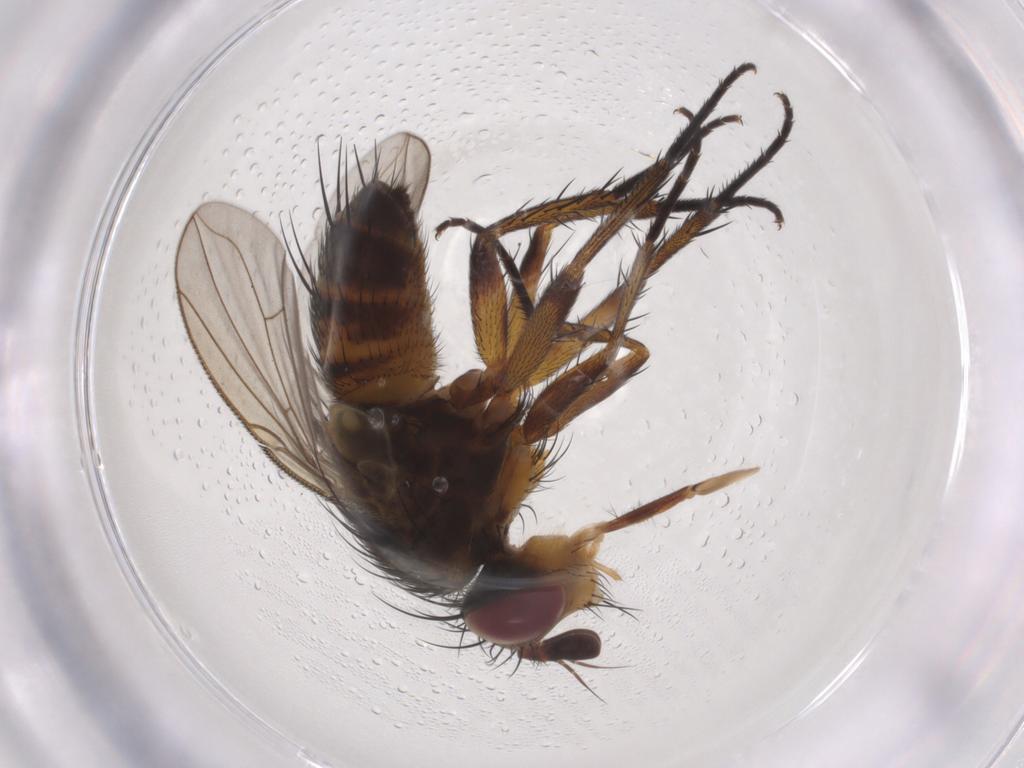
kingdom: Animalia
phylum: Arthropoda
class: Insecta
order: Diptera
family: Tachinidae
